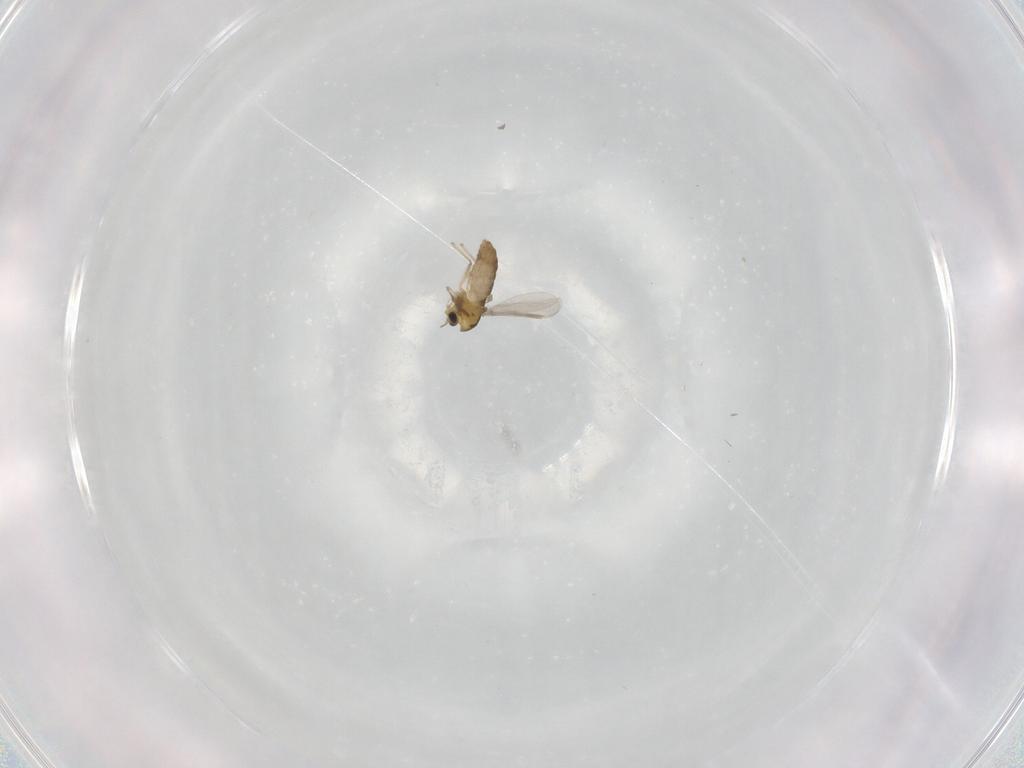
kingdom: Animalia
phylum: Arthropoda
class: Insecta
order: Diptera
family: Chironomidae
